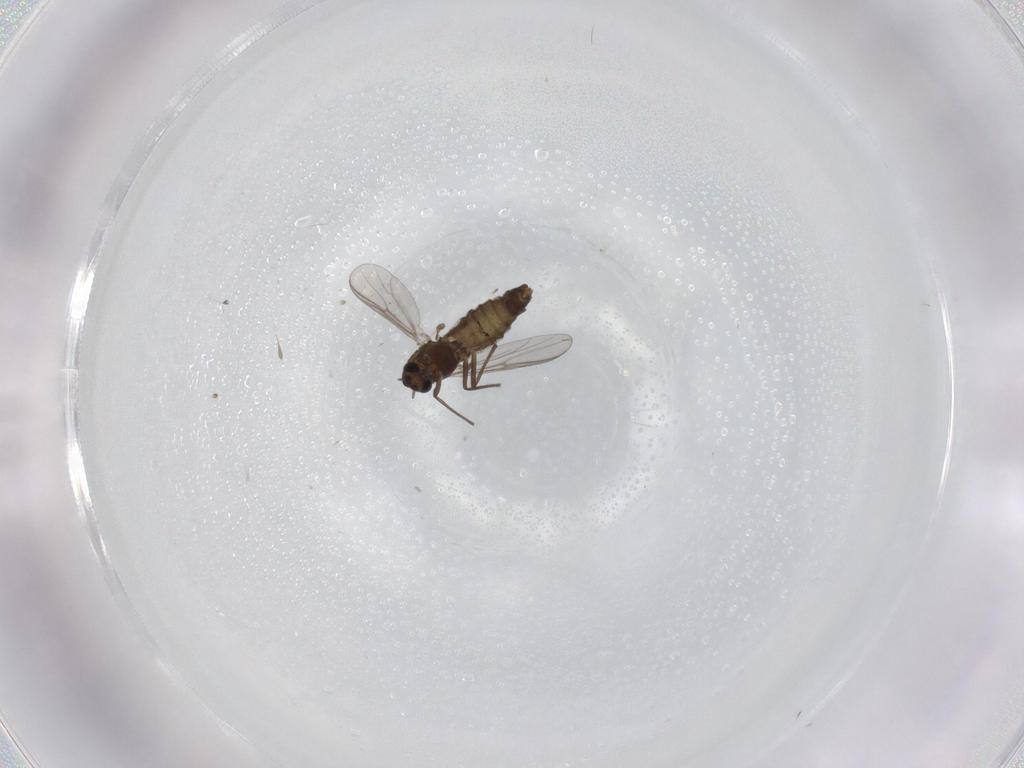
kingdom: Animalia
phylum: Arthropoda
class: Insecta
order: Diptera
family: Chironomidae
